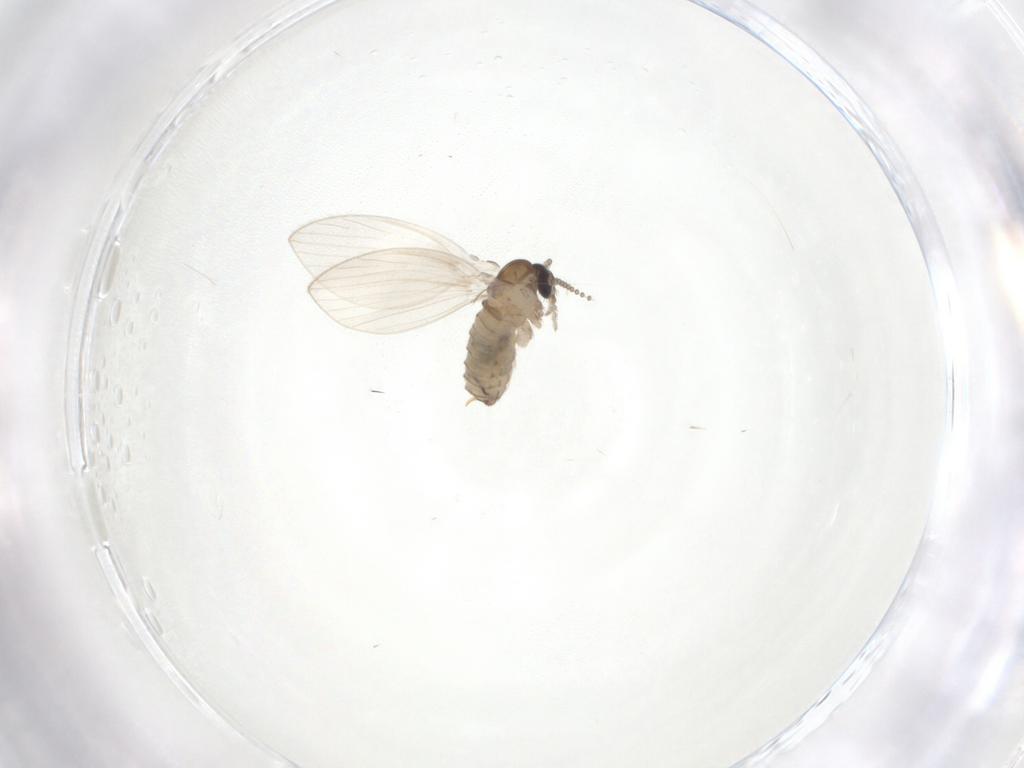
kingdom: Animalia
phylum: Arthropoda
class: Insecta
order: Diptera
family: Psychodidae
